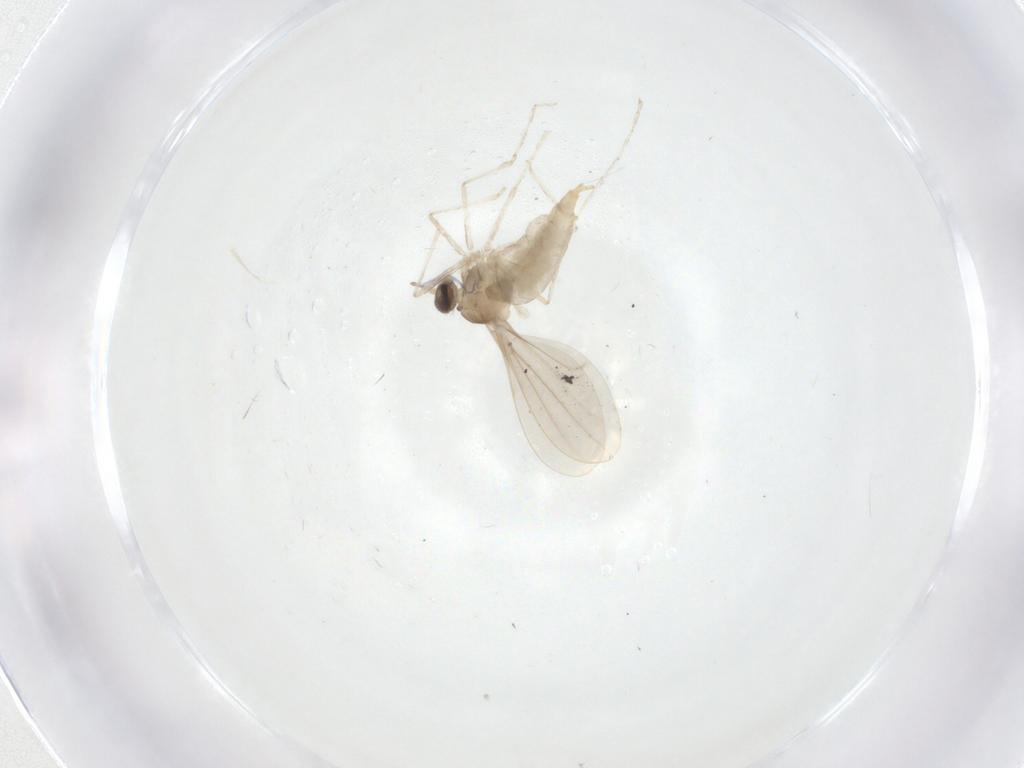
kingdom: Animalia
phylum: Arthropoda
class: Insecta
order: Diptera
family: Cecidomyiidae
